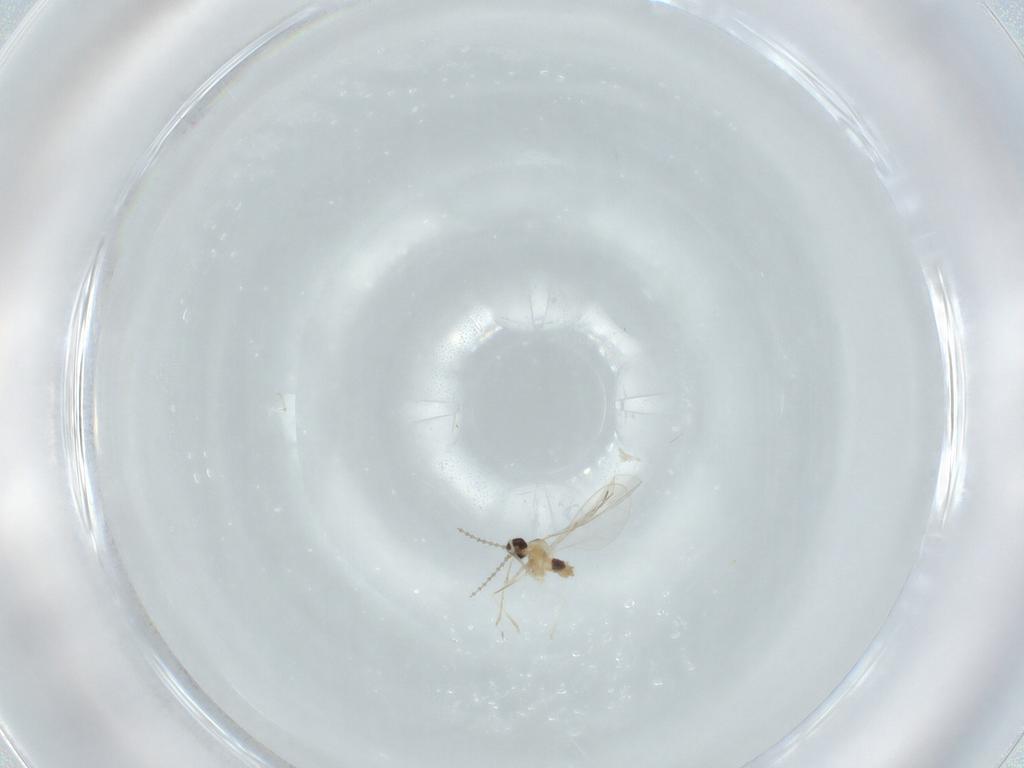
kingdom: Animalia
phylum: Arthropoda
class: Insecta
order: Diptera
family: Cecidomyiidae
